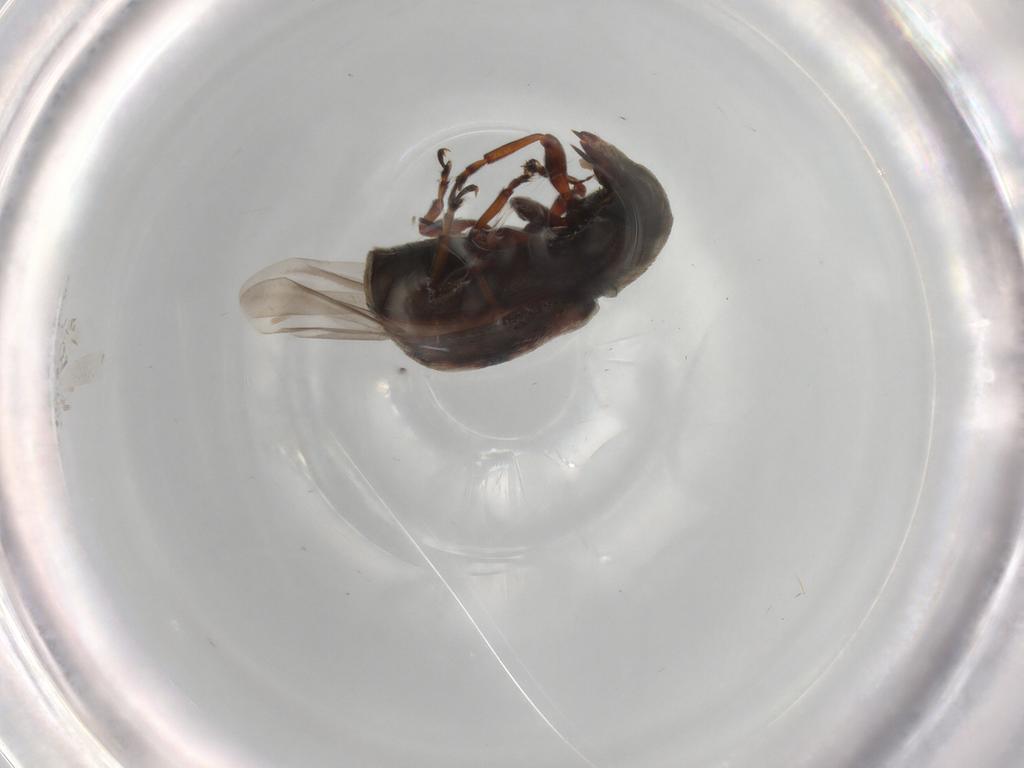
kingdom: Animalia
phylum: Arthropoda
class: Insecta
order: Coleoptera
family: Anthribidae
